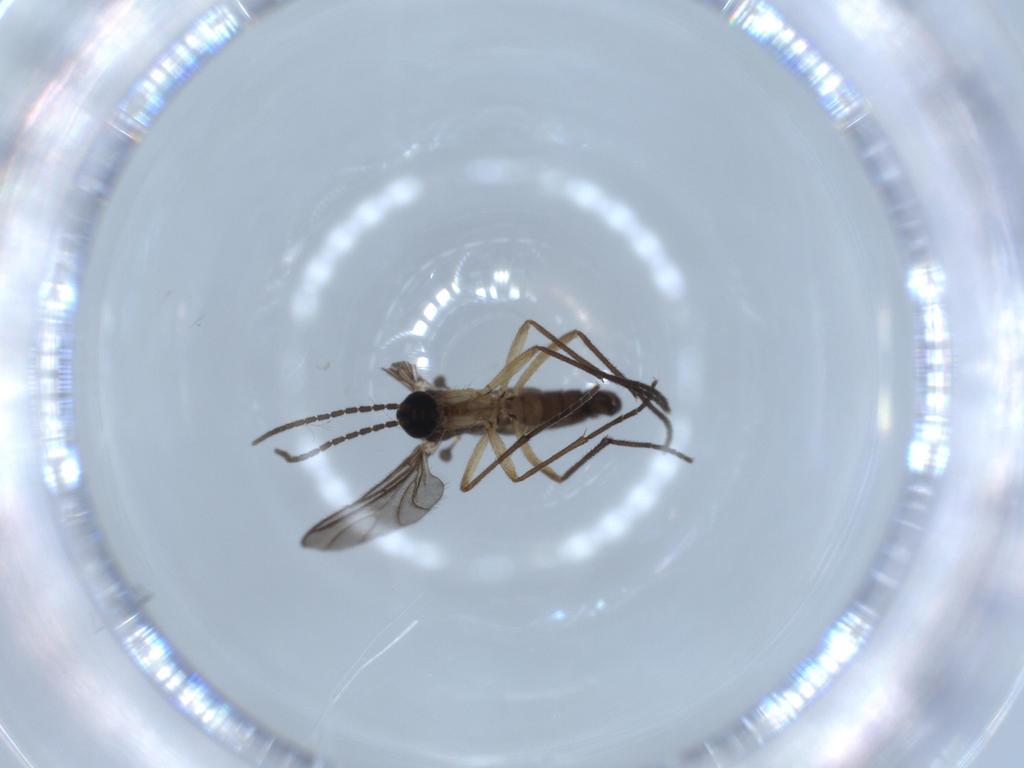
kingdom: Animalia
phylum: Arthropoda
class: Insecta
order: Diptera
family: Sciaridae
